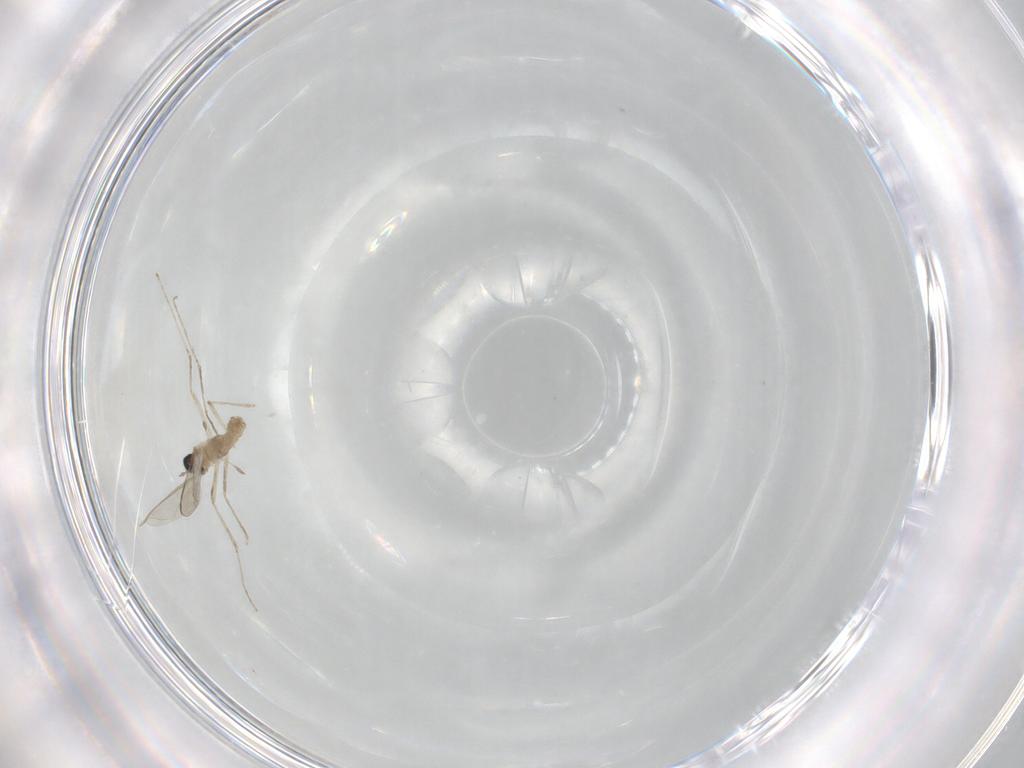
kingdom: Animalia
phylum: Arthropoda
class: Insecta
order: Diptera
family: Cecidomyiidae
